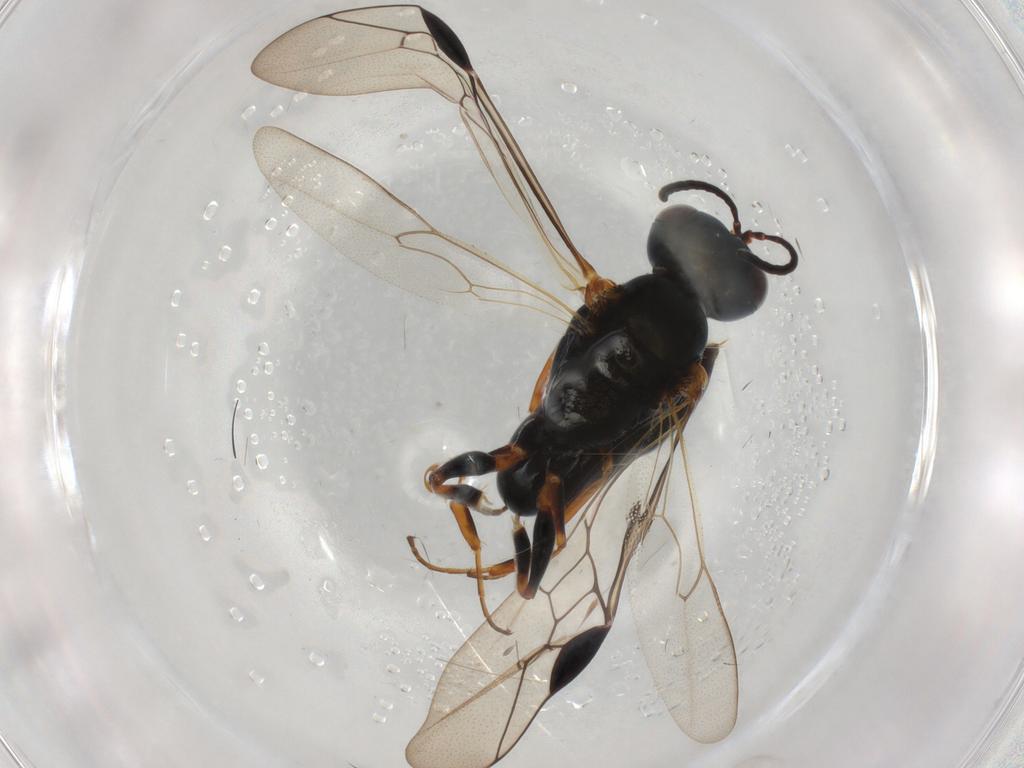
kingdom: Animalia
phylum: Arthropoda
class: Insecta
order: Hymenoptera
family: Pemphredonidae
